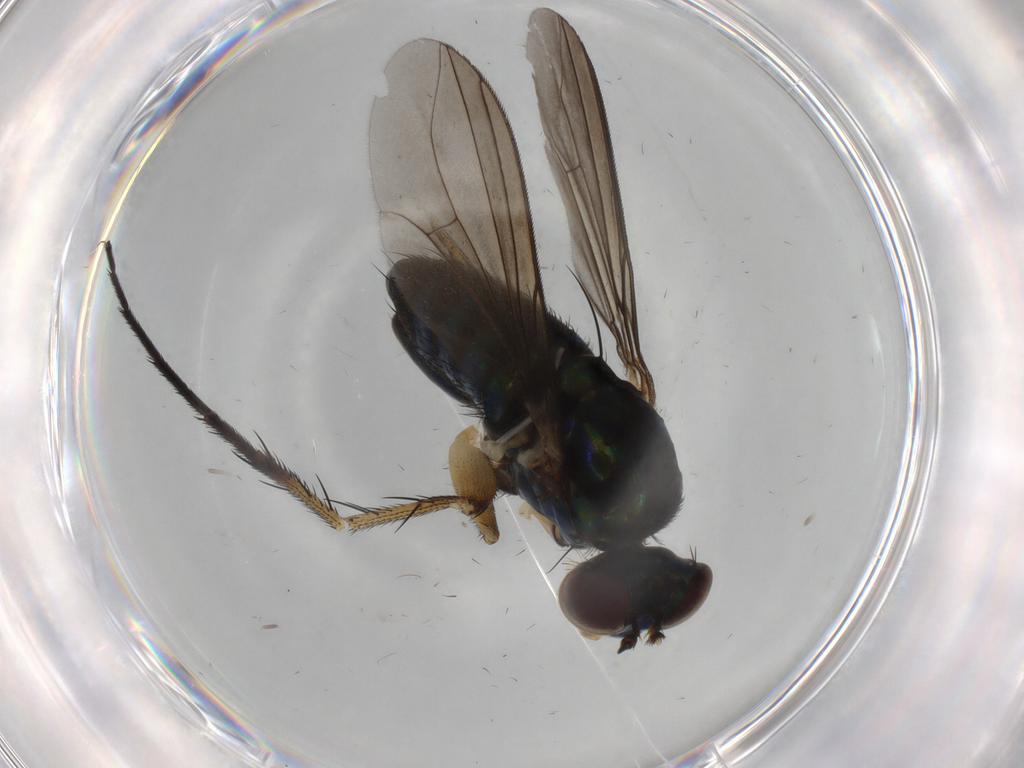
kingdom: Animalia
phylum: Arthropoda
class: Insecta
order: Diptera
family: Dolichopodidae
